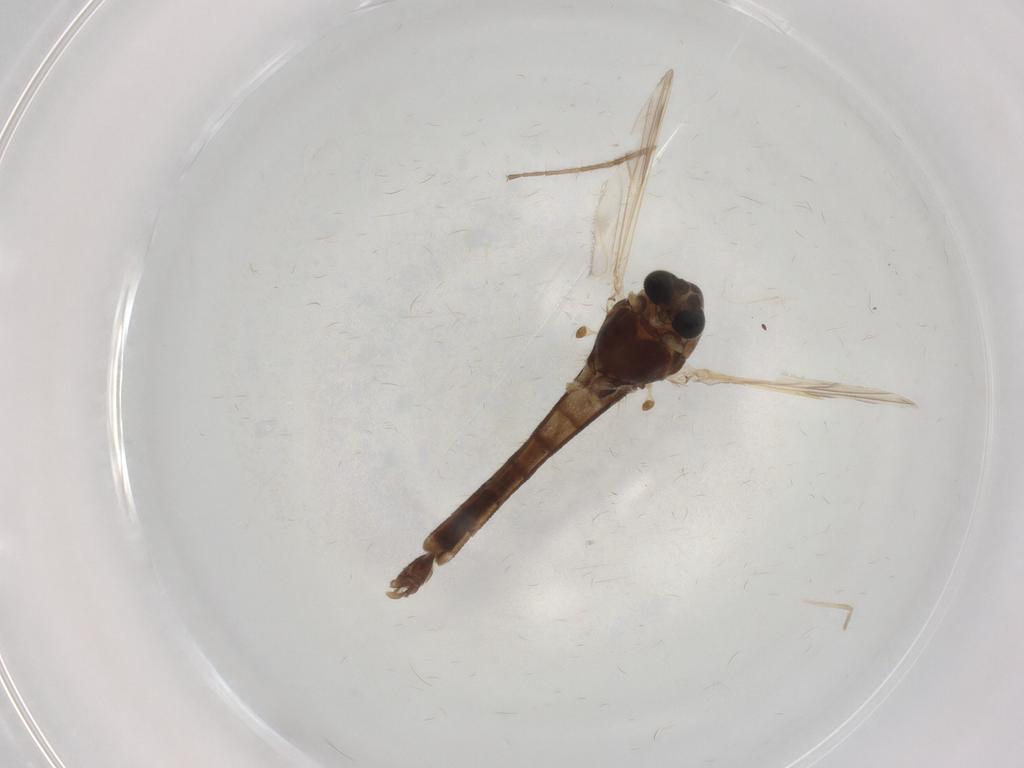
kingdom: Animalia
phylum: Arthropoda
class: Insecta
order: Diptera
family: Chironomidae
